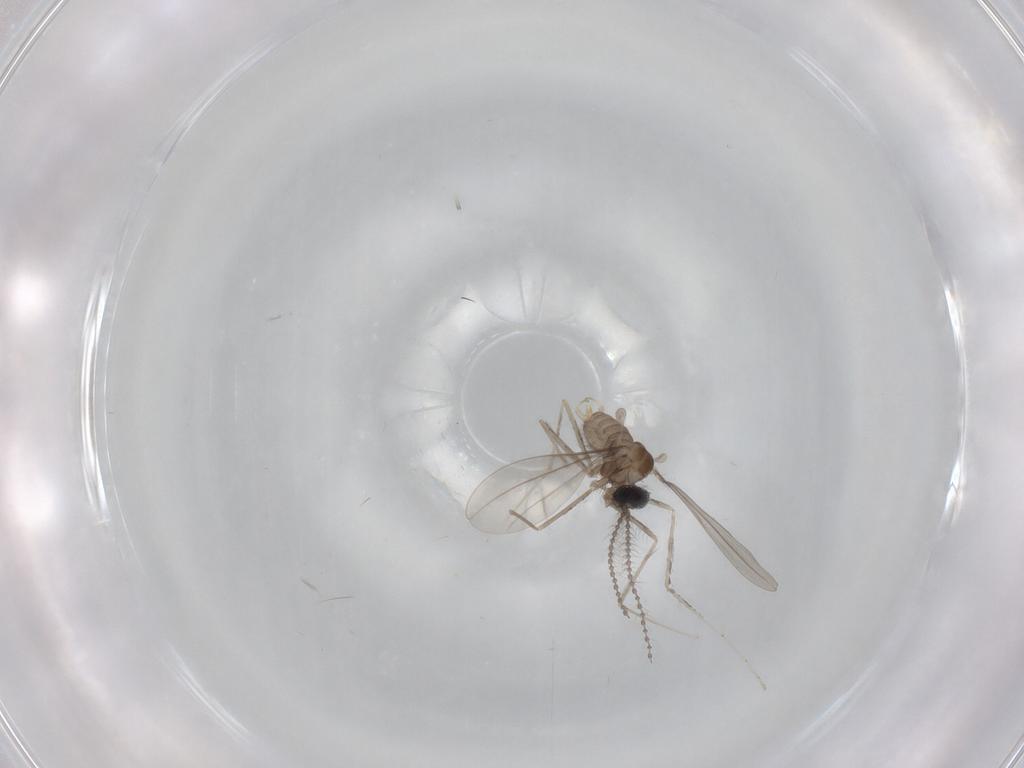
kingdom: Animalia
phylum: Arthropoda
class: Insecta
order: Diptera
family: Cecidomyiidae
